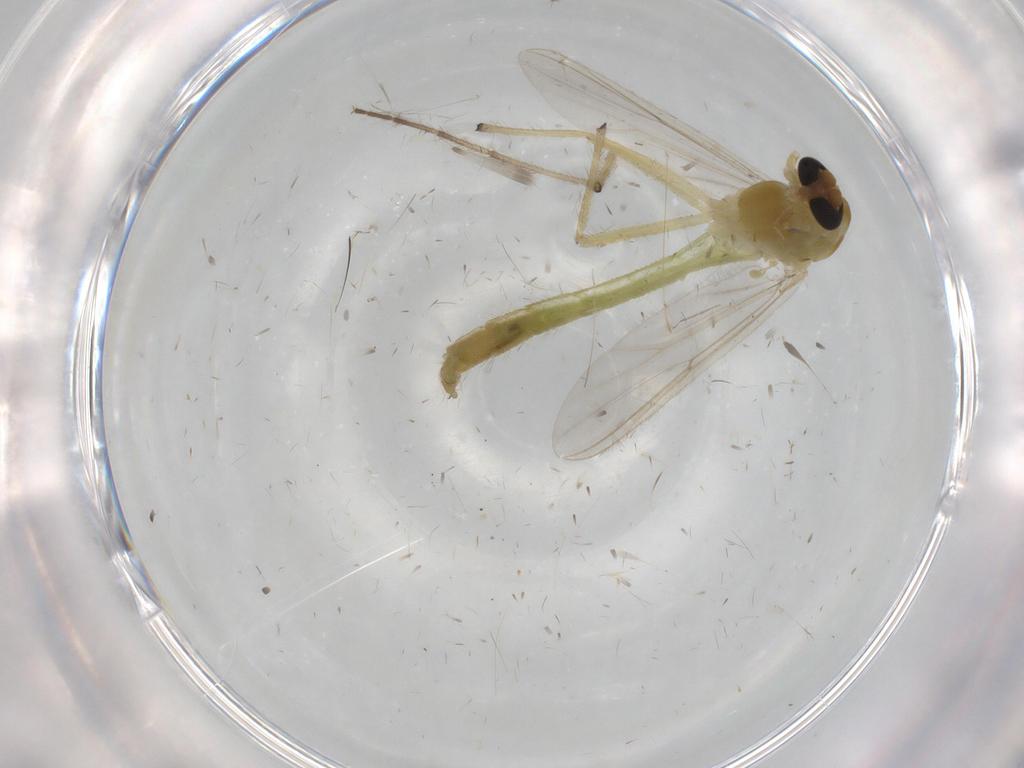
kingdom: Animalia
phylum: Arthropoda
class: Insecta
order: Diptera
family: Chironomidae
